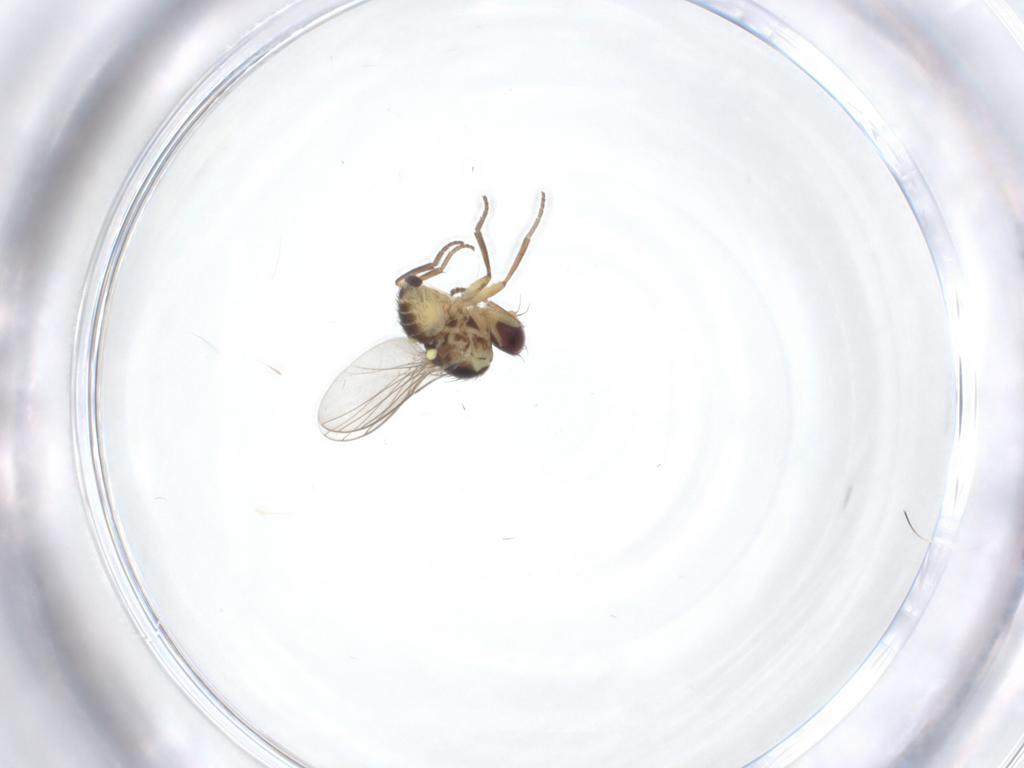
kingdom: Animalia
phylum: Arthropoda
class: Insecta
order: Diptera
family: Agromyzidae
